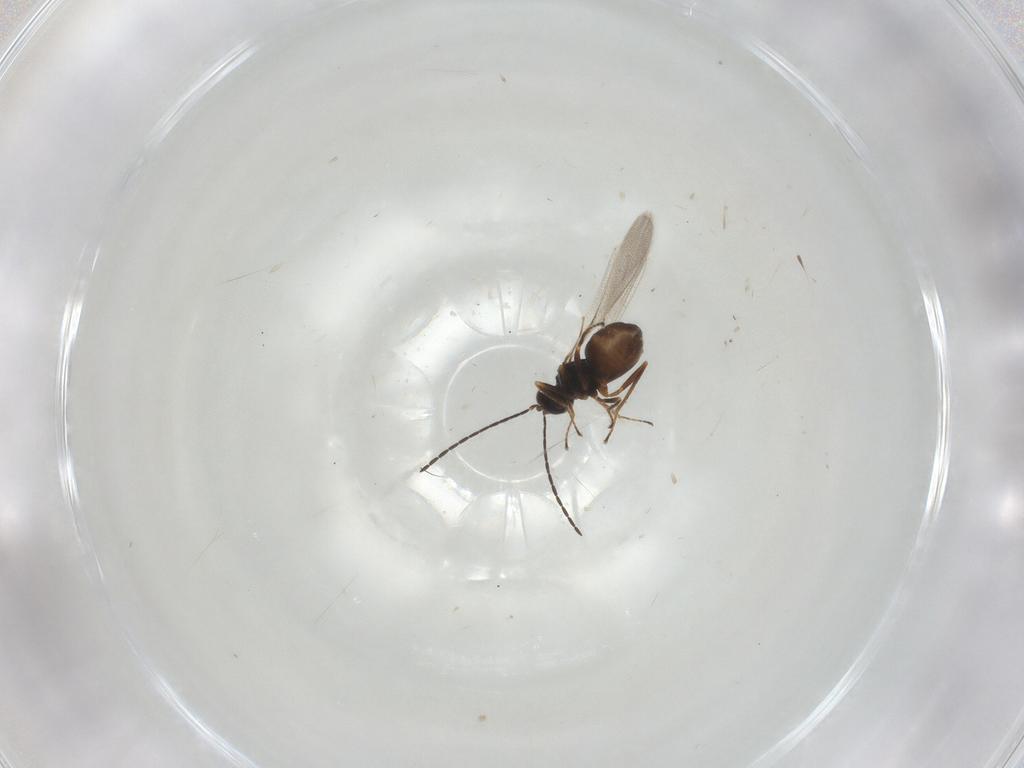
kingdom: Animalia
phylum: Arthropoda
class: Insecta
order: Hymenoptera
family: Mymaridae
